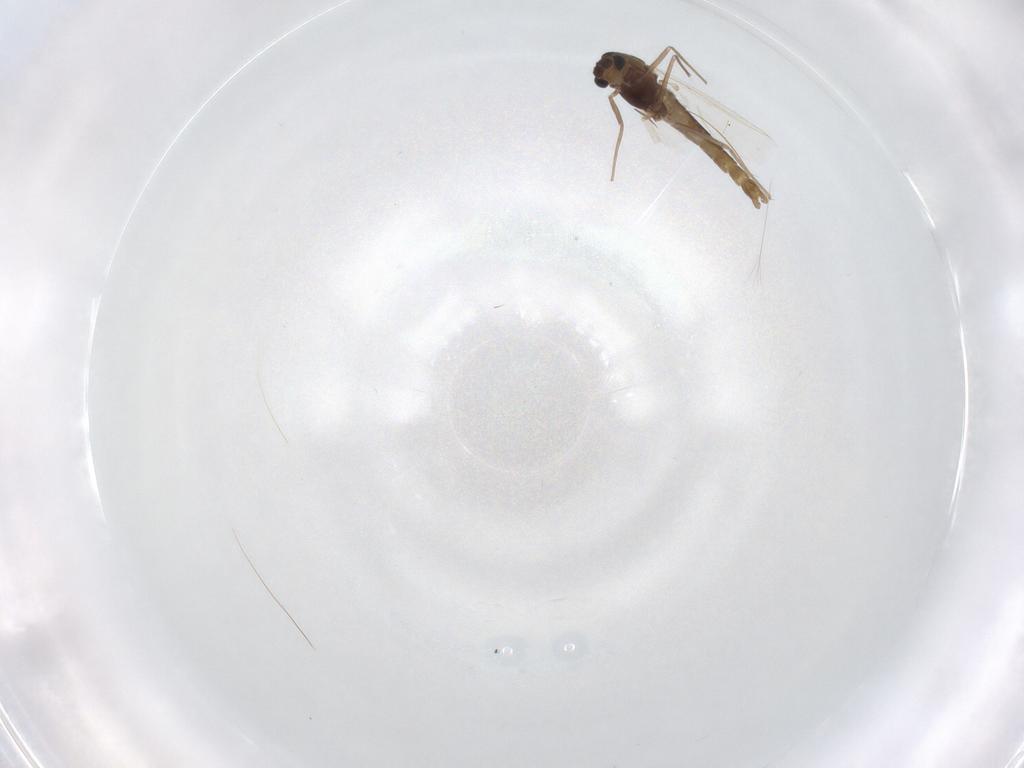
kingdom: Animalia
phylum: Arthropoda
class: Insecta
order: Diptera
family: Chironomidae
